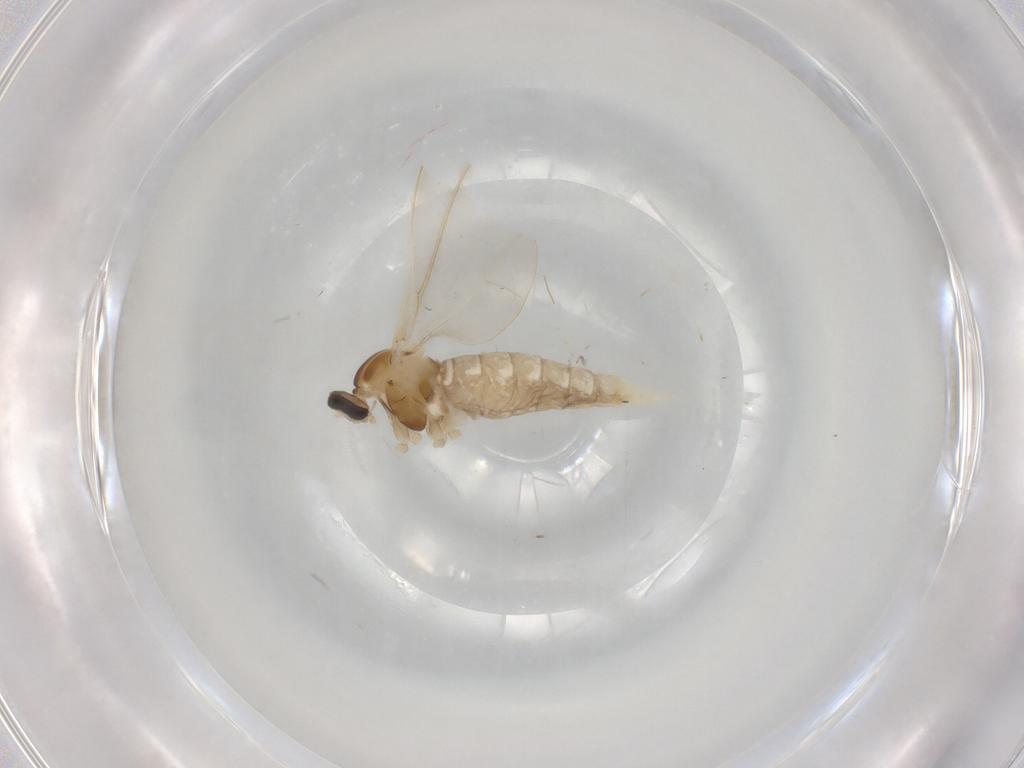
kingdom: Animalia
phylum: Arthropoda
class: Insecta
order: Diptera
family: Cecidomyiidae
